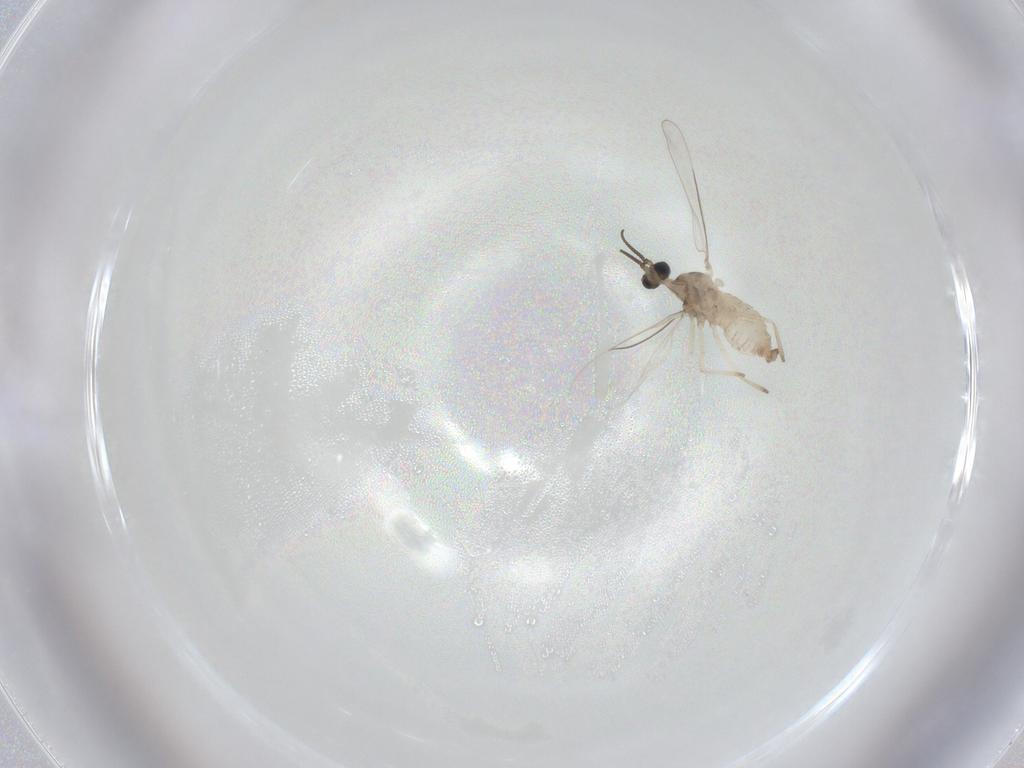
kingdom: Animalia
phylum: Arthropoda
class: Insecta
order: Diptera
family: Cecidomyiidae
